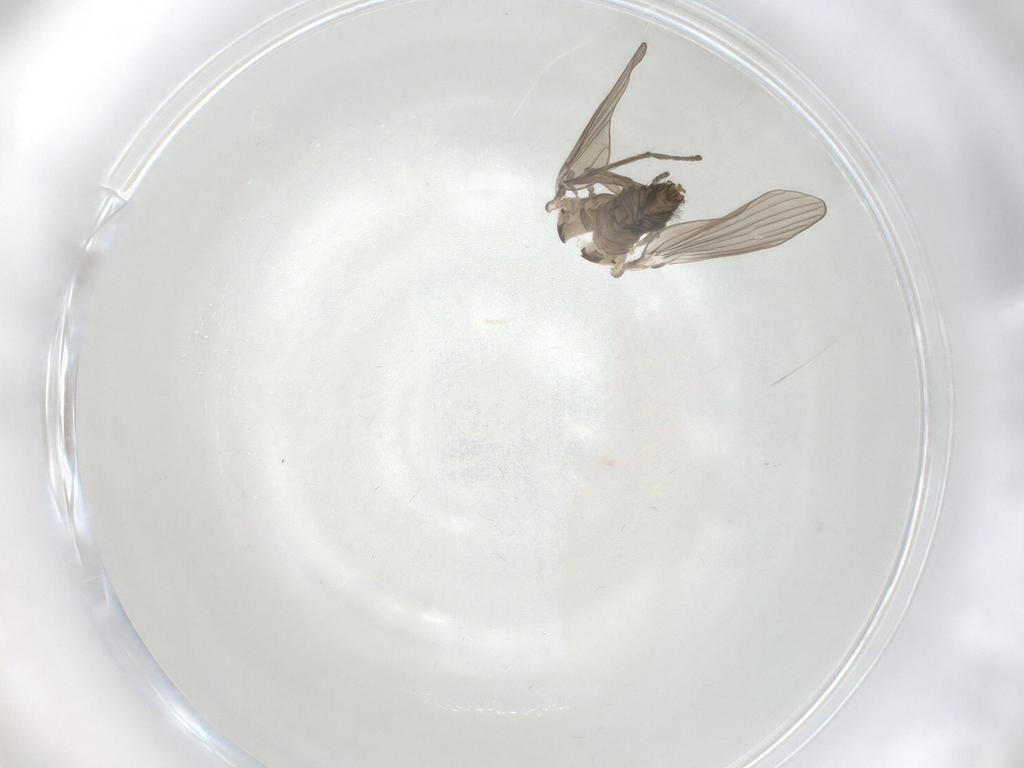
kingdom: Animalia
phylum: Arthropoda
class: Insecta
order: Diptera
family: Psychodidae
